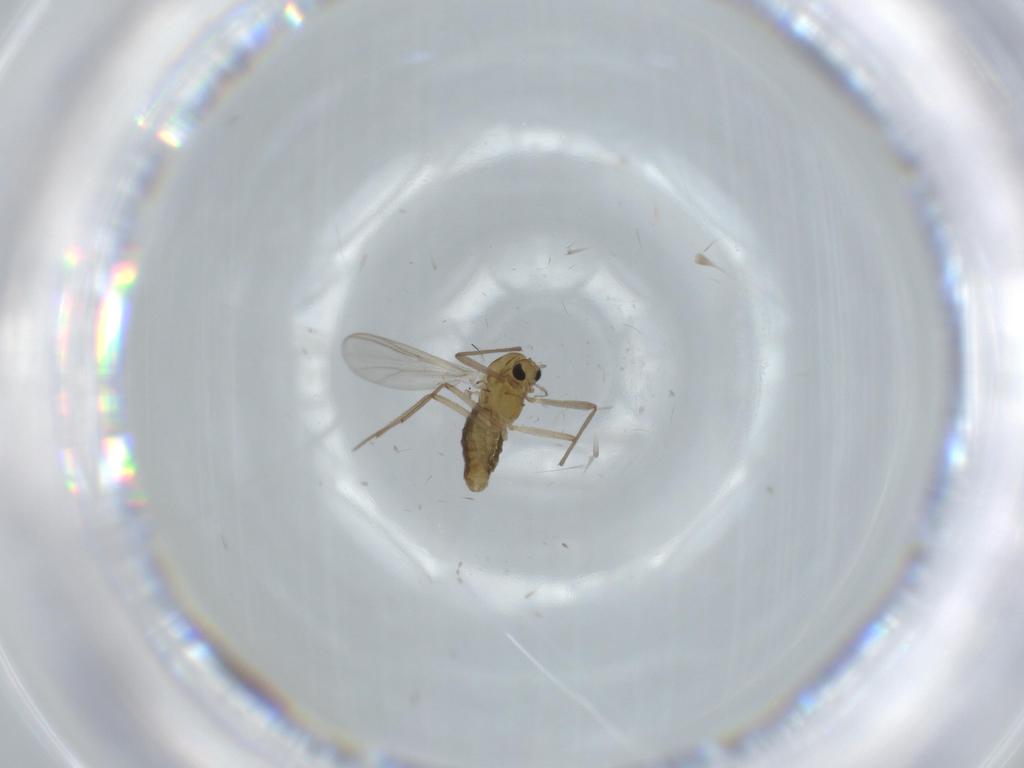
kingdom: Animalia
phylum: Arthropoda
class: Insecta
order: Diptera
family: Chironomidae
